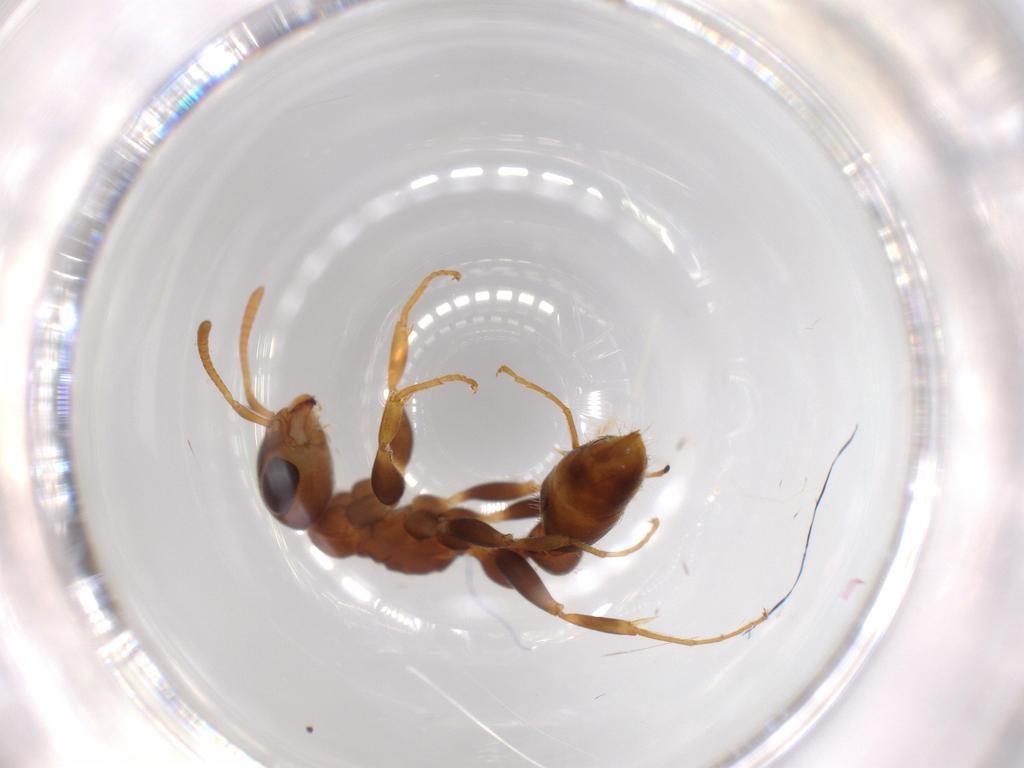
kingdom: Animalia
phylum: Arthropoda
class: Insecta
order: Hymenoptera
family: Formicidae
